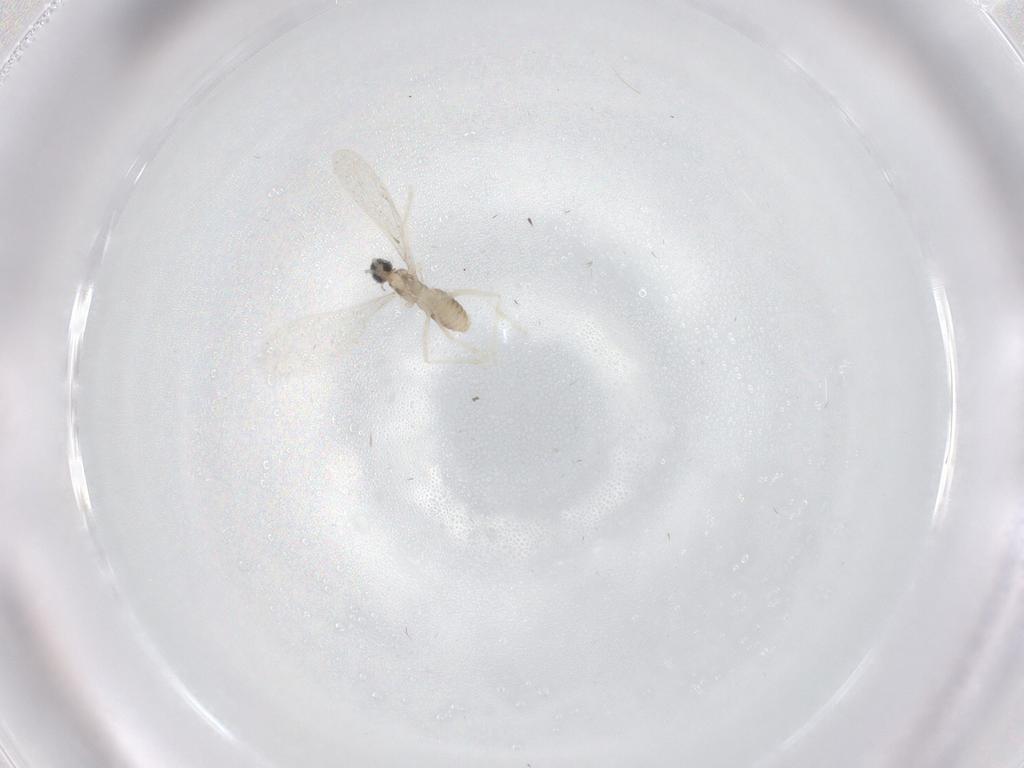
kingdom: Animalia
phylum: Arthropoda
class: Insecta
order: Diptera
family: Cecidomyiidae
